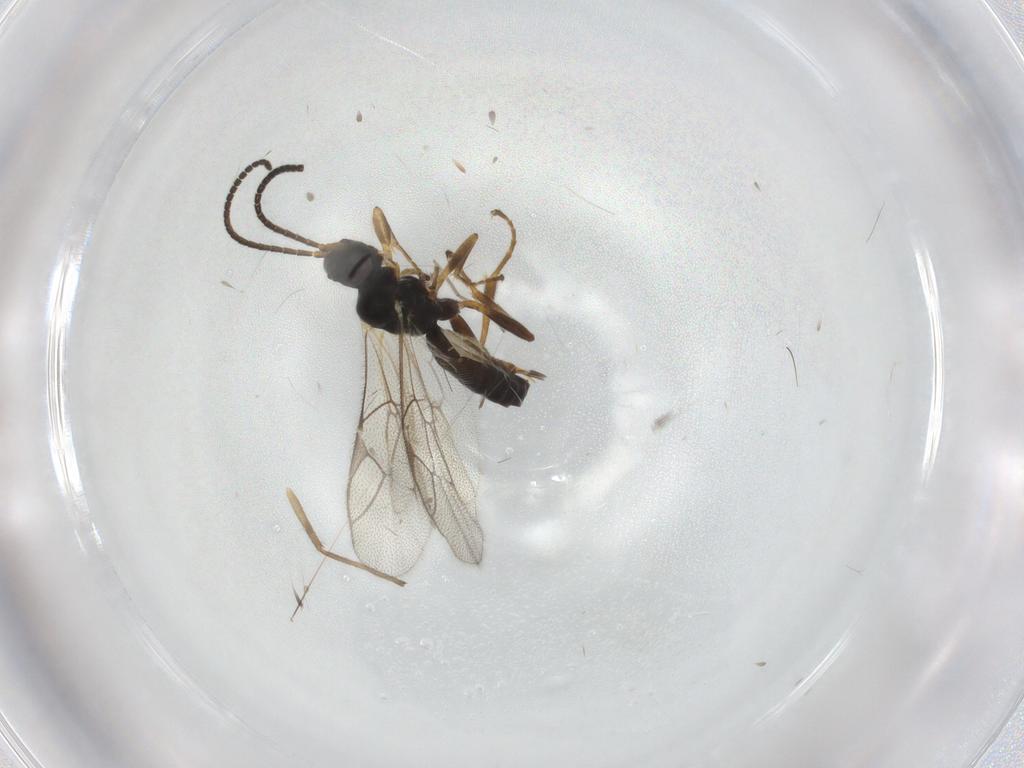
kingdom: Animalia
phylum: Arthropoda
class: Insecta
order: Hymenoptera
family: Ichneumonidae
